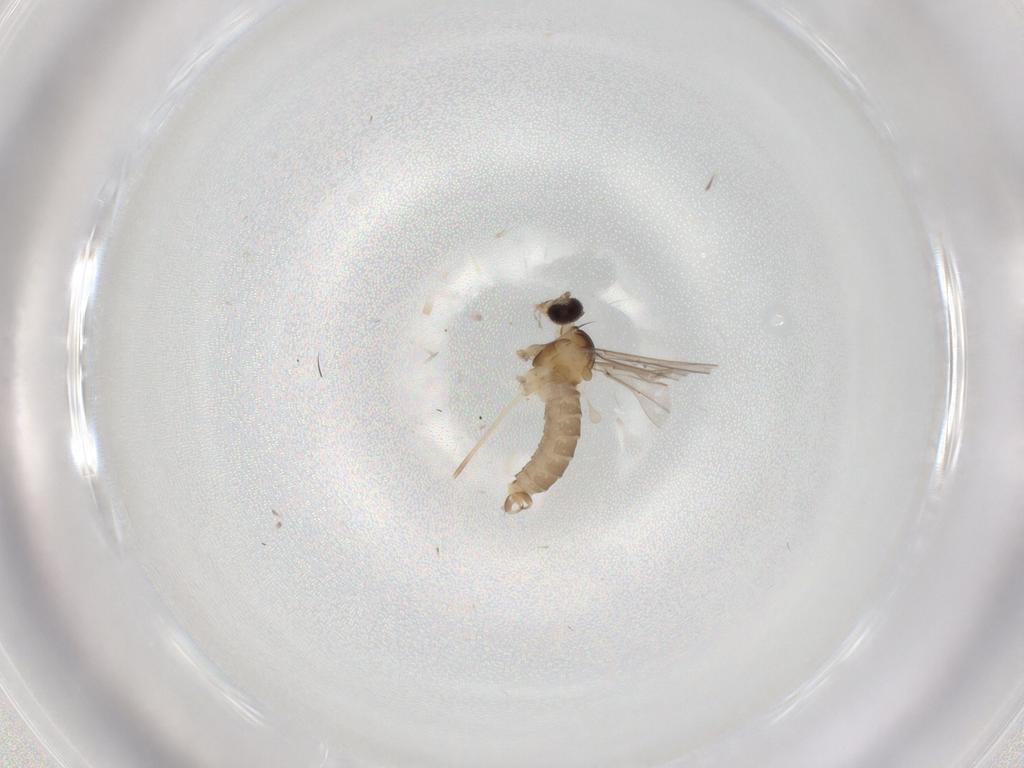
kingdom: Animalia
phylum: Arthropoda
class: Insecta
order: Diptera
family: Cecidomyiidae
